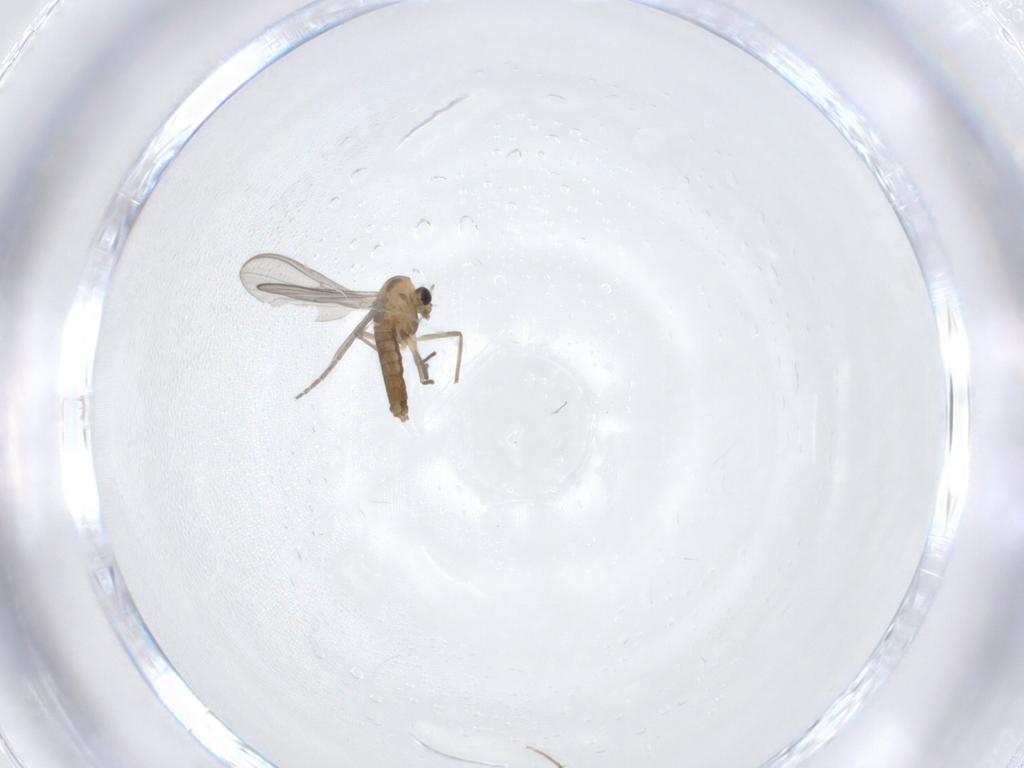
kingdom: Animalia
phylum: Arthropoda
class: Insecta
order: Diptera
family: Chironomidae
